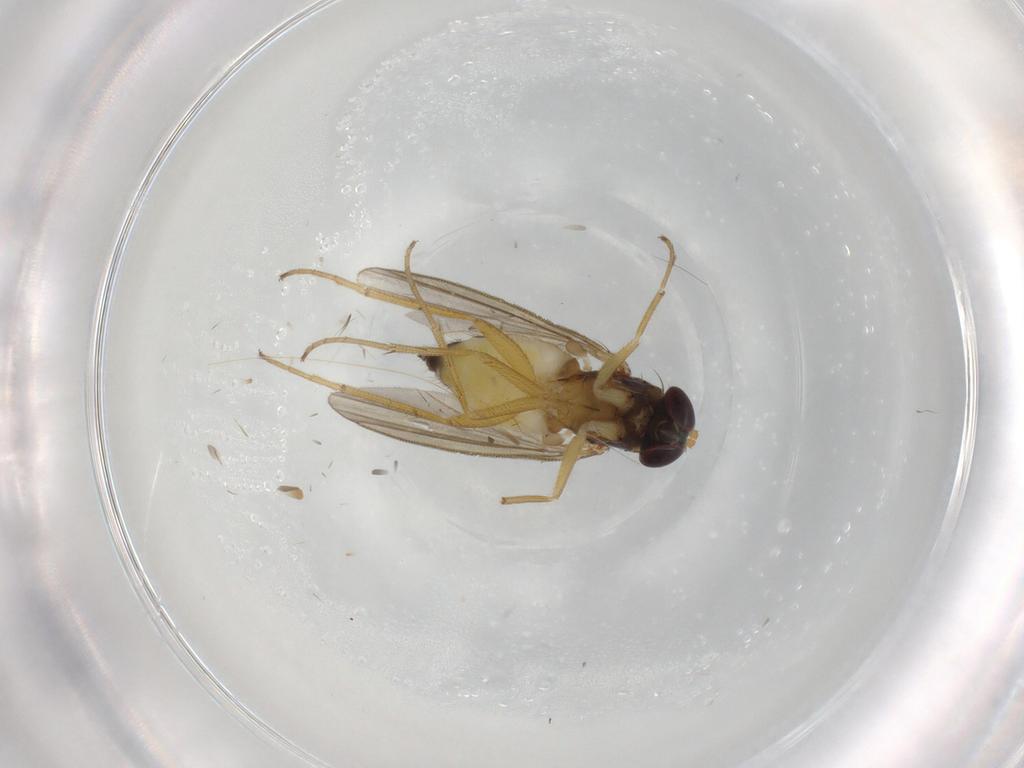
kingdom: Animalia
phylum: Arthropoda
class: Insecta
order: Diptera
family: Dolichopodidae
